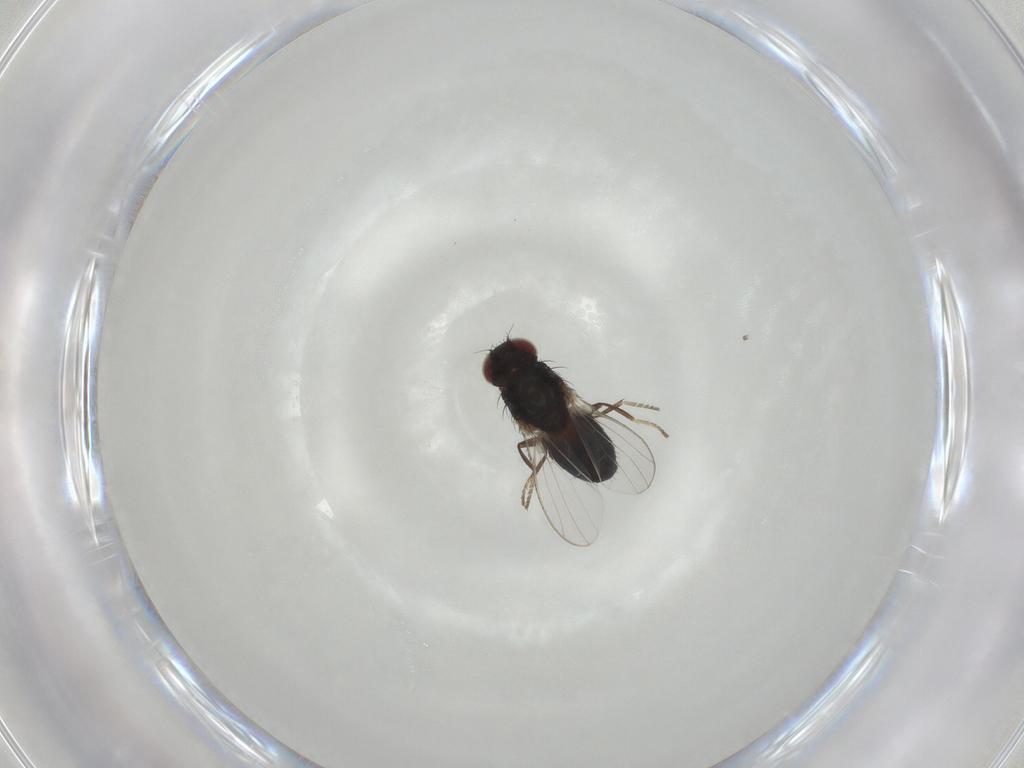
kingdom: Animalia
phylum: Arthropoda
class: Insecta
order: Diptera
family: Carnidae
